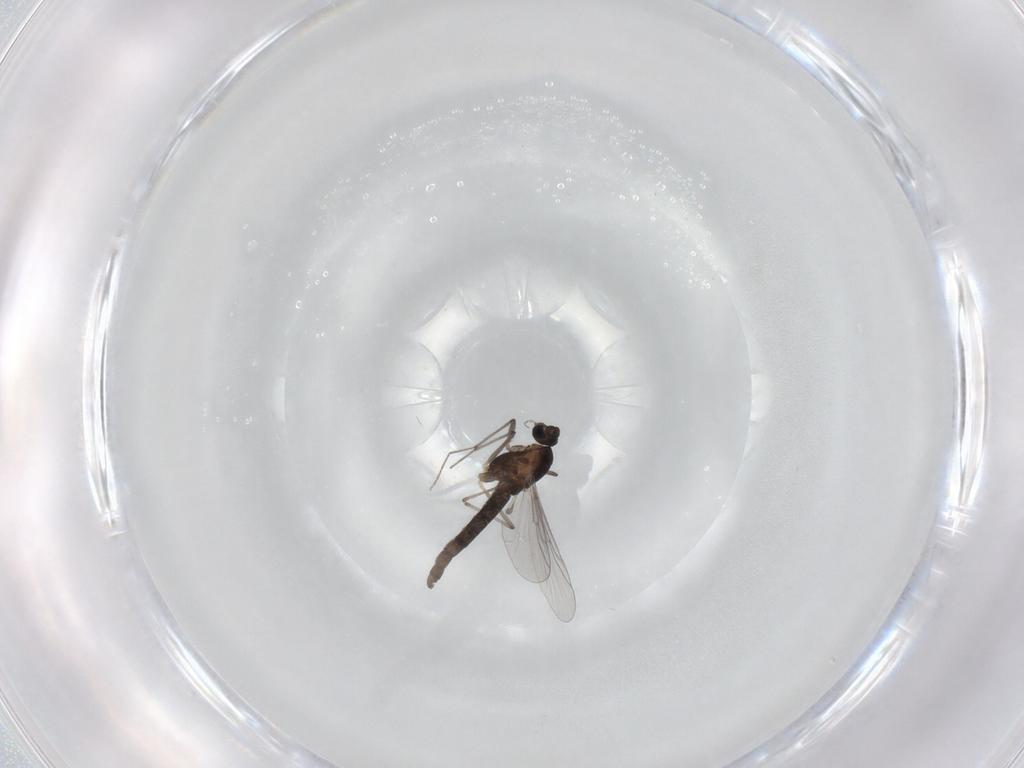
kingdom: Animalia
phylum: Arthropoda
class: Insecta
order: Diptera
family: Chironomidae
